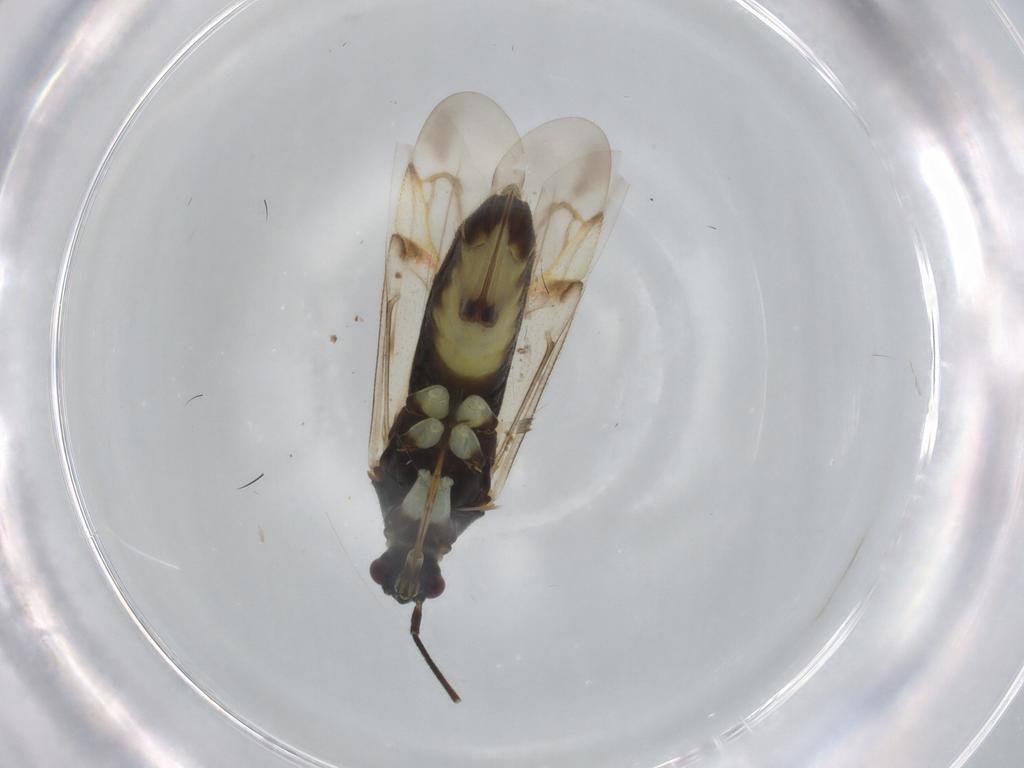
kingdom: Animalia
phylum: Arthropoda
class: Insecta
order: Hemiptera
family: Miridae
